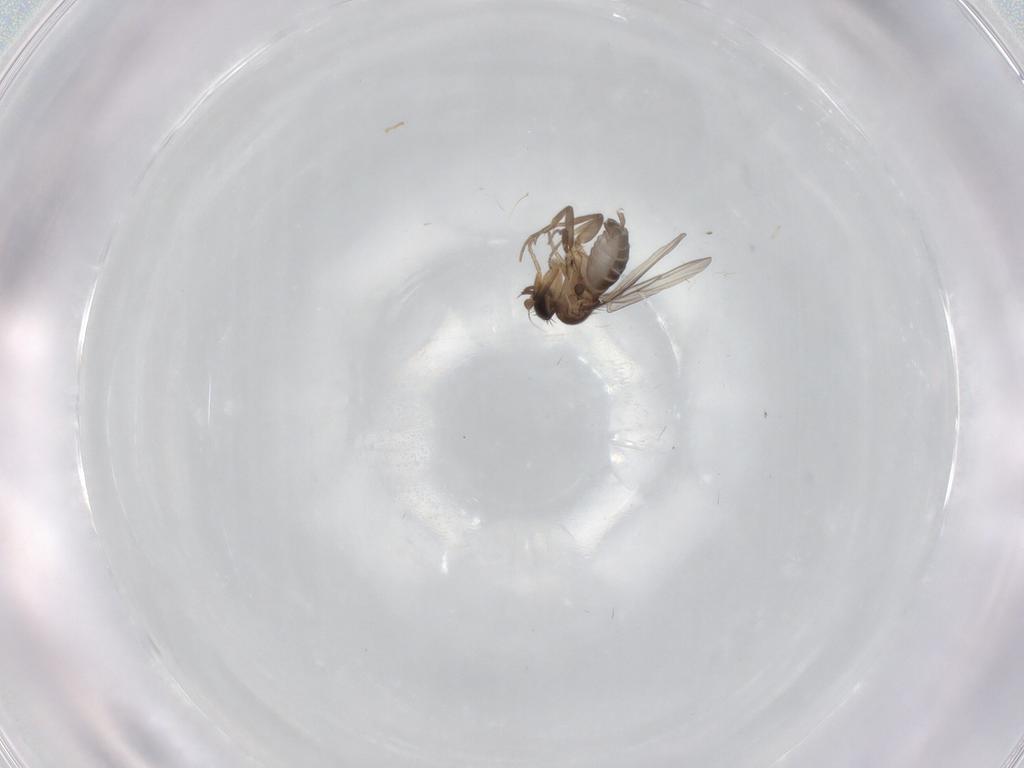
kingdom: Animalia
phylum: Arthropoda
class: Insecta
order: Diptera
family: Phoridae
